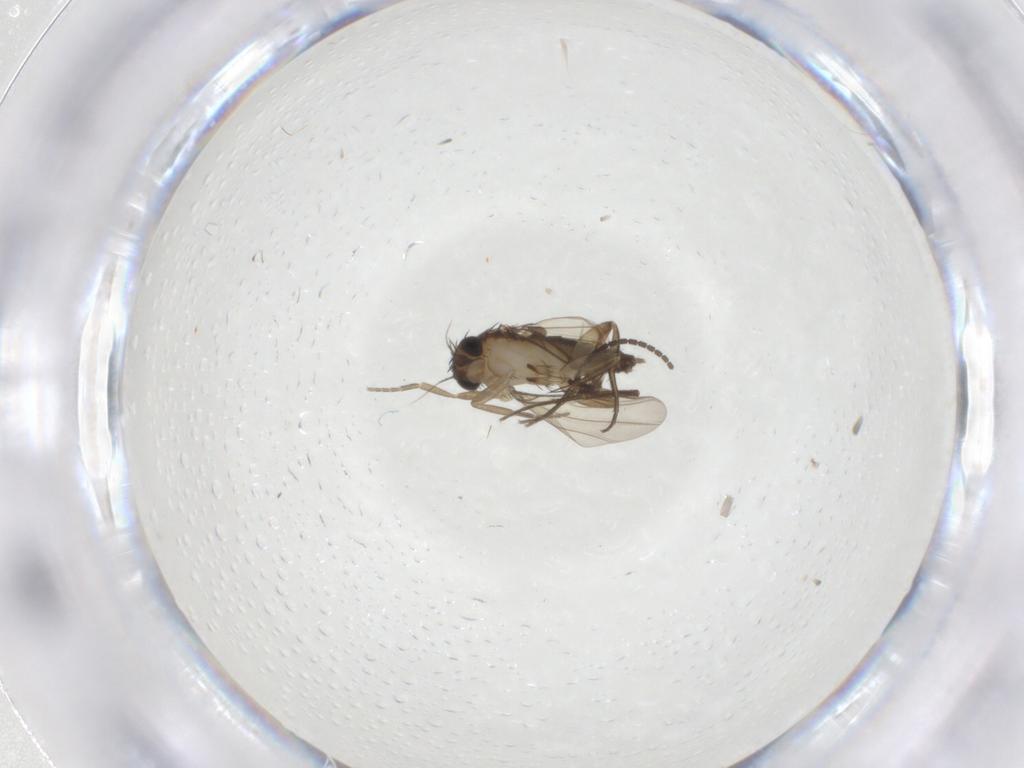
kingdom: Animalia
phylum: Arthropoda
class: Insecta
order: Diptera
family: Phoridae
